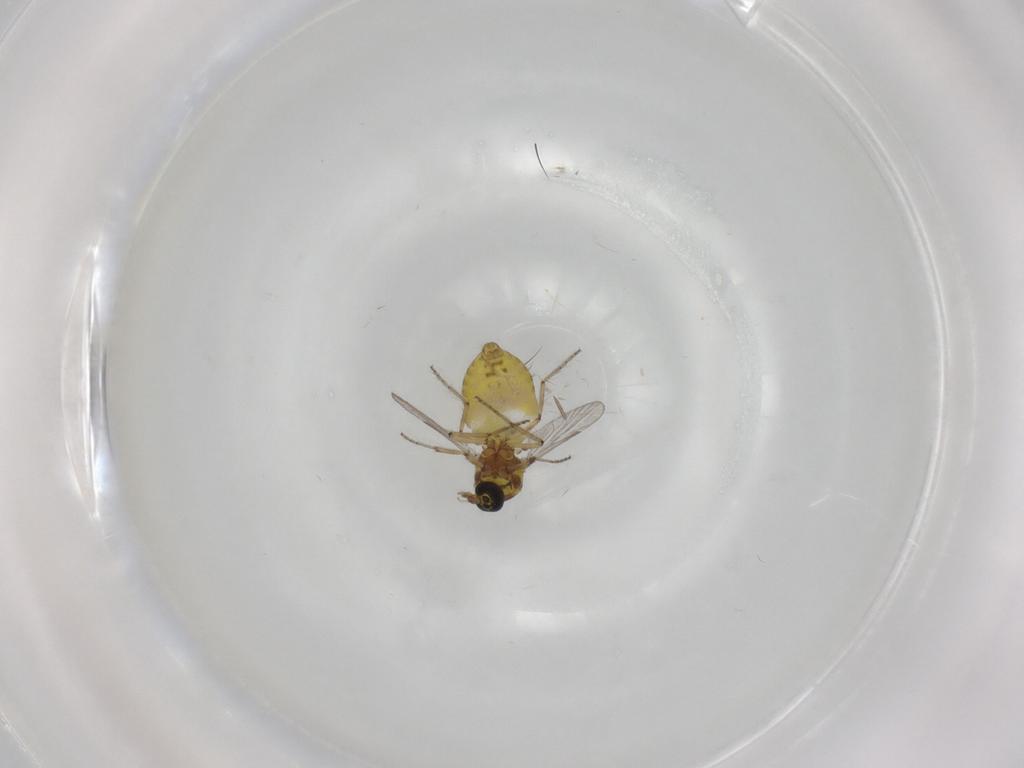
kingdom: Animalia
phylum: Arthropoda
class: Insecta
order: Diptera
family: Ceratopogonidae
